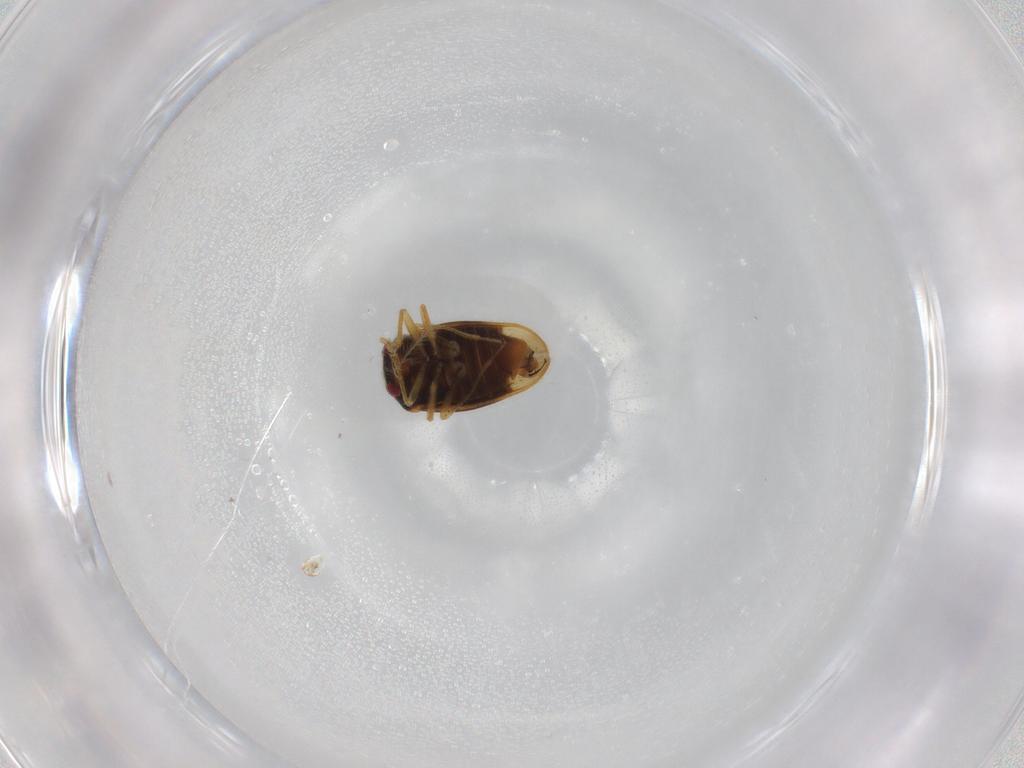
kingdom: Animalia
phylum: Arthropoda
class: Insecta
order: Hemiptera
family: Schizopteridae
